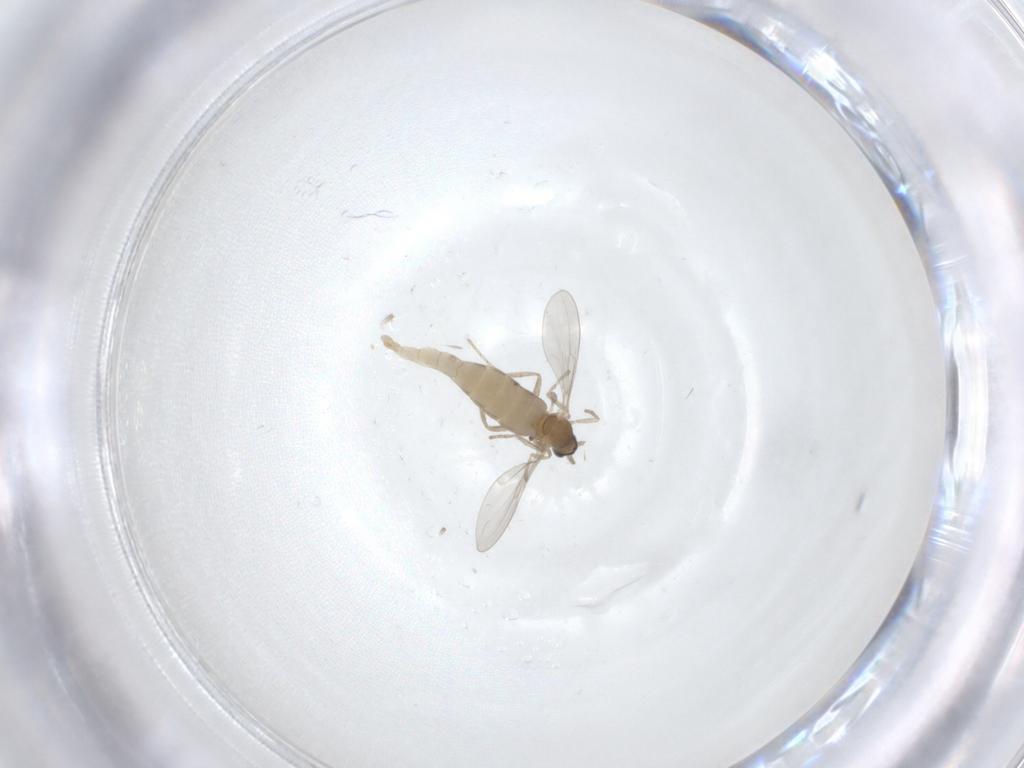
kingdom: Animalia
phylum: Arthropoda
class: Insecta
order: Diptera
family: Cecidomyiidae
